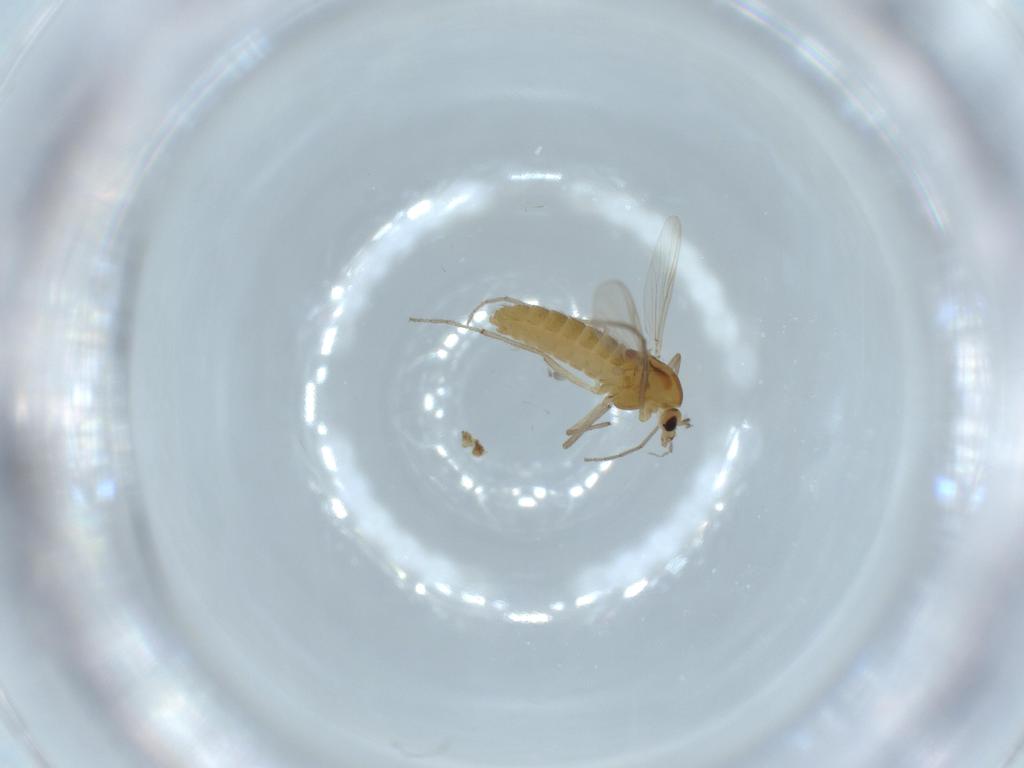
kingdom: Animalia
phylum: Arthropoda
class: Insecta
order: Diptera
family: Chironomidae
